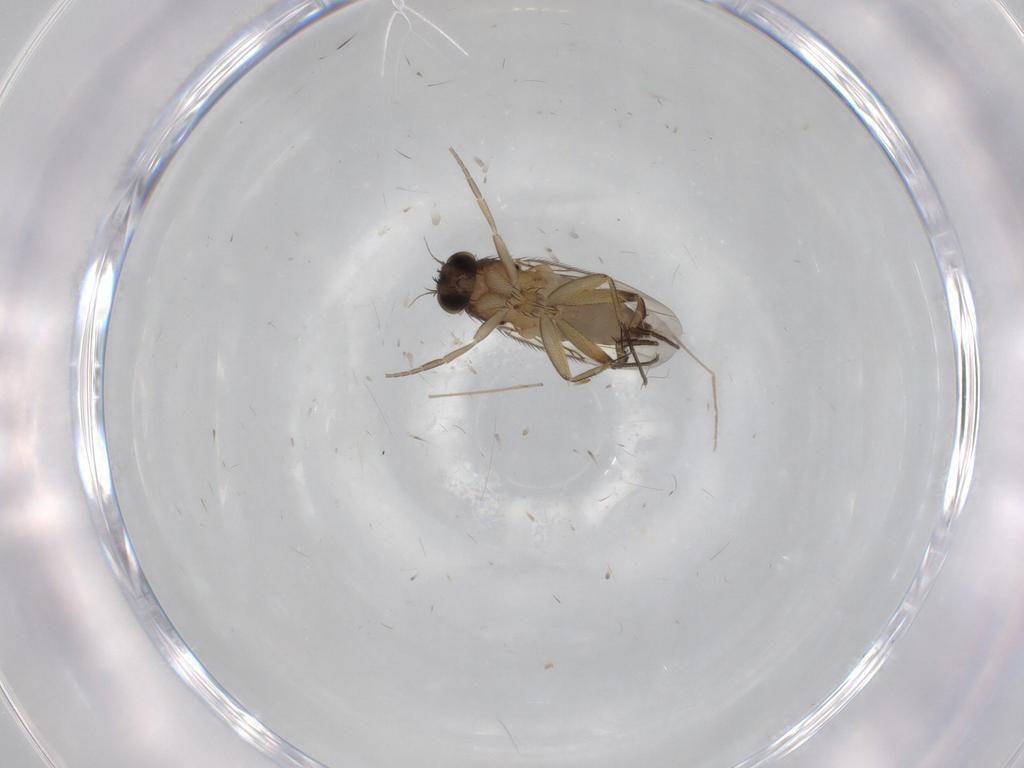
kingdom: Animalia
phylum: Arthropoda
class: Insecta
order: Diptera
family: Phoridae
